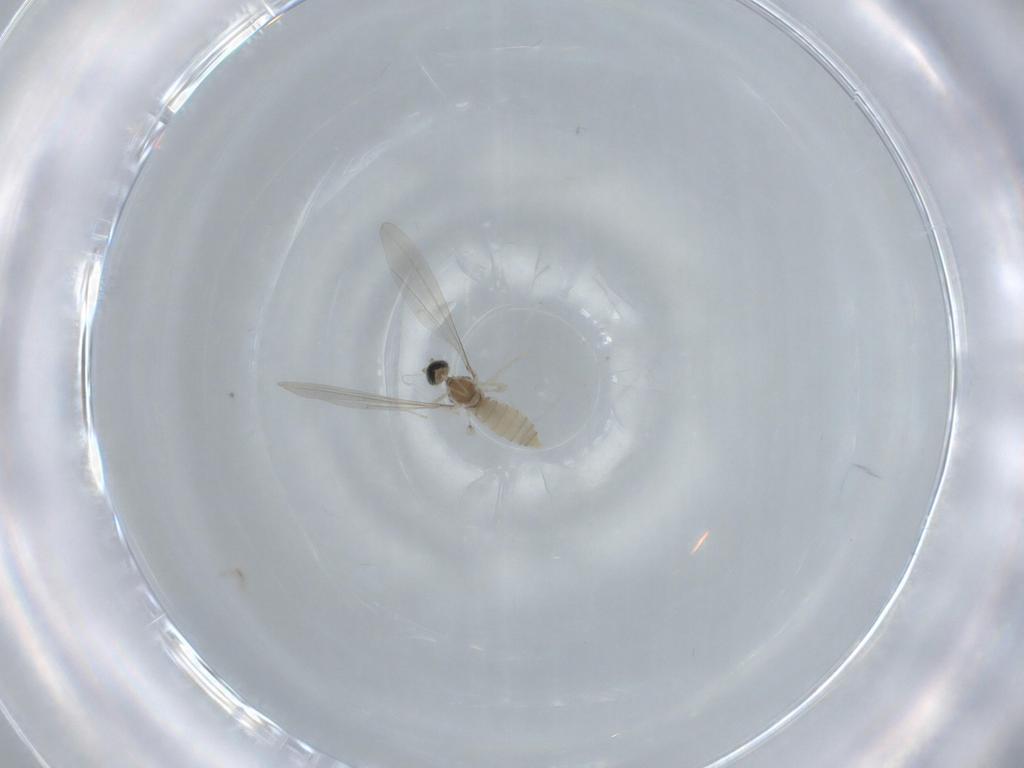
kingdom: Animalia
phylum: Arthropoda
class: Insecta
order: Diptera
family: Cecidomyiidae
